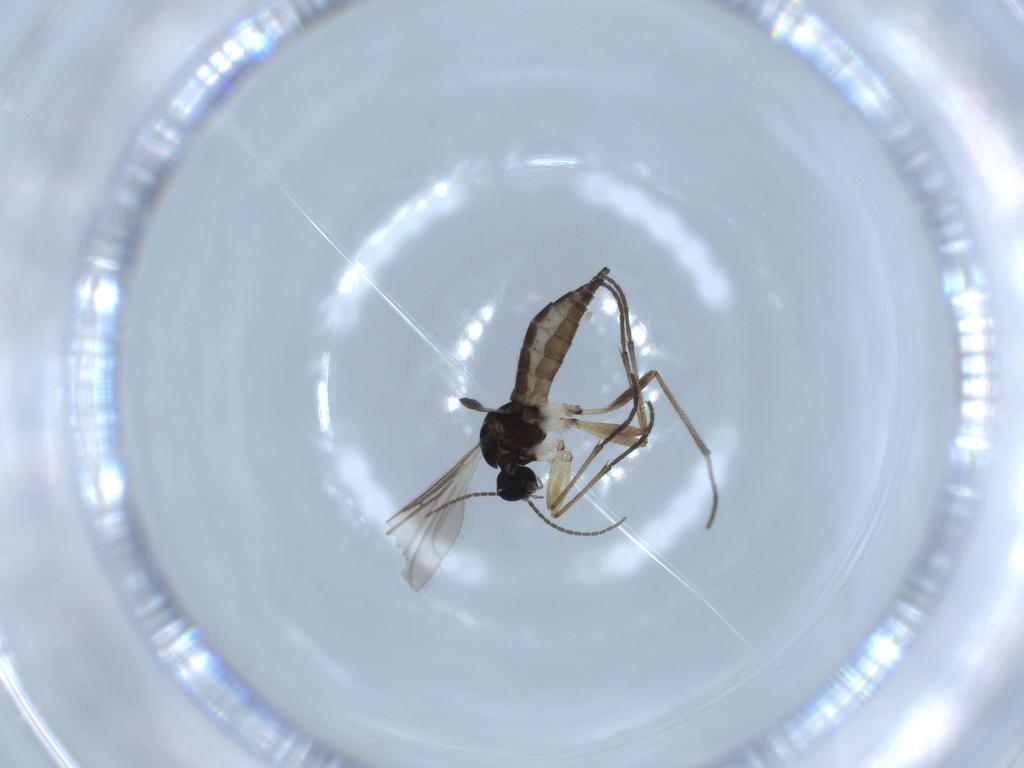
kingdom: Animalia
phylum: Arthropoda
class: Insecta
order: Diptera
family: Sciaridae
